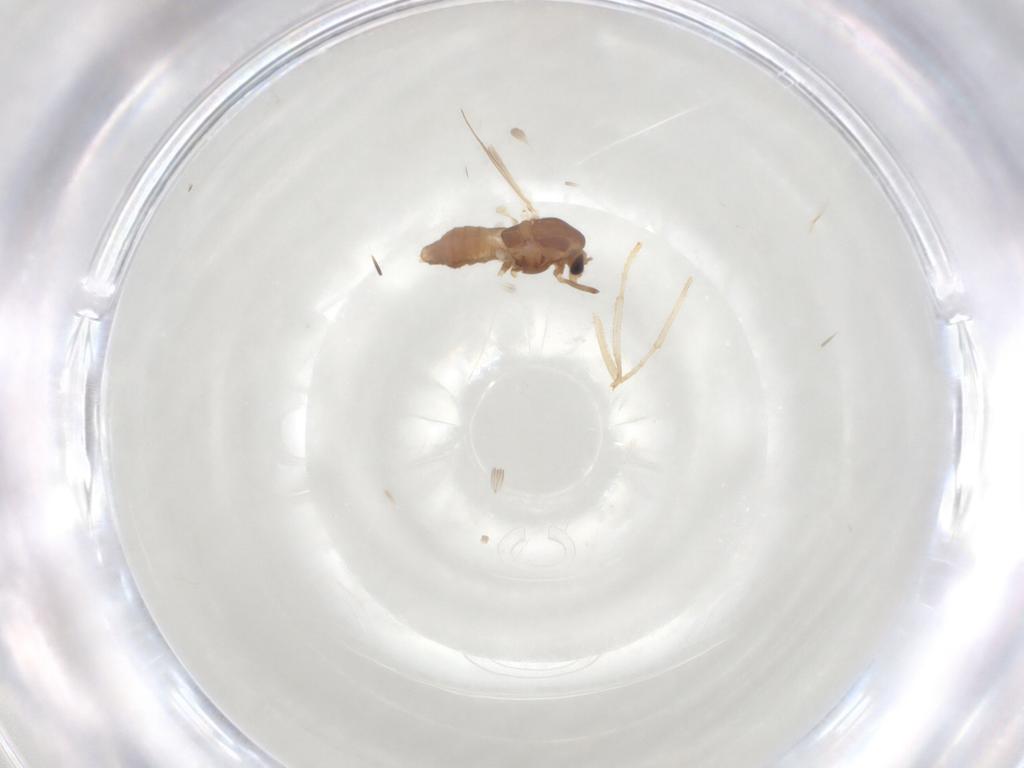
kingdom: Animalia
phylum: Arthropoda
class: Insecta
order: Diptera
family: Chironomidae
